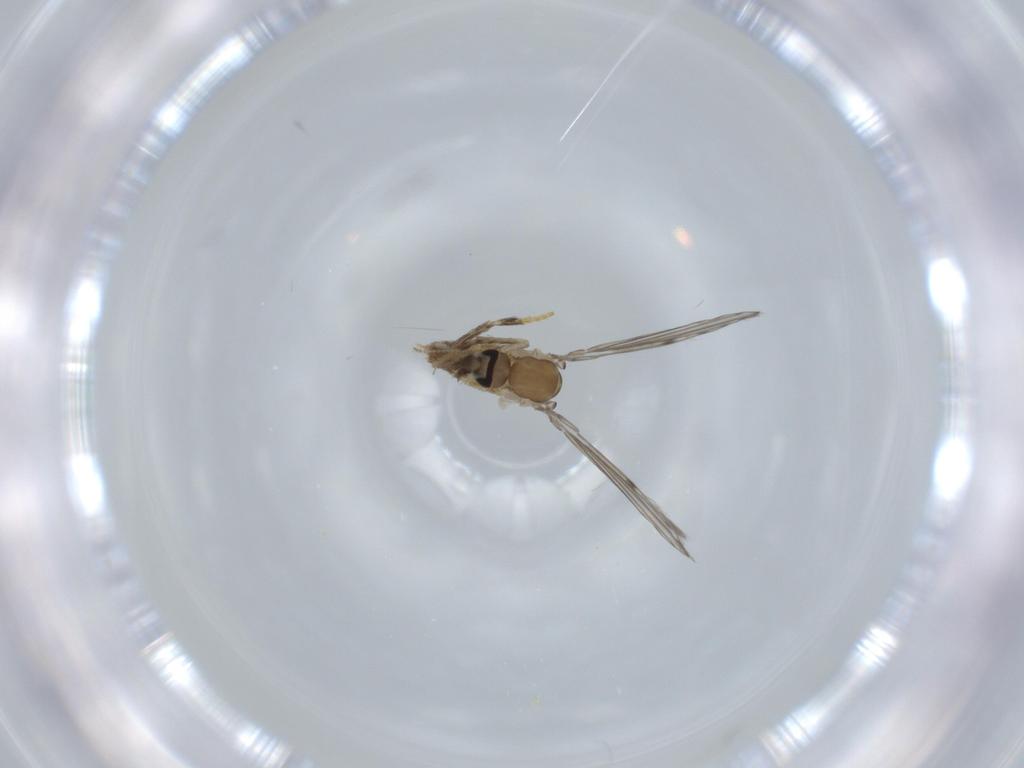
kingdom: Animalia
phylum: Arthropoda
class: Insecta
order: Diptera
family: Psychodidae
